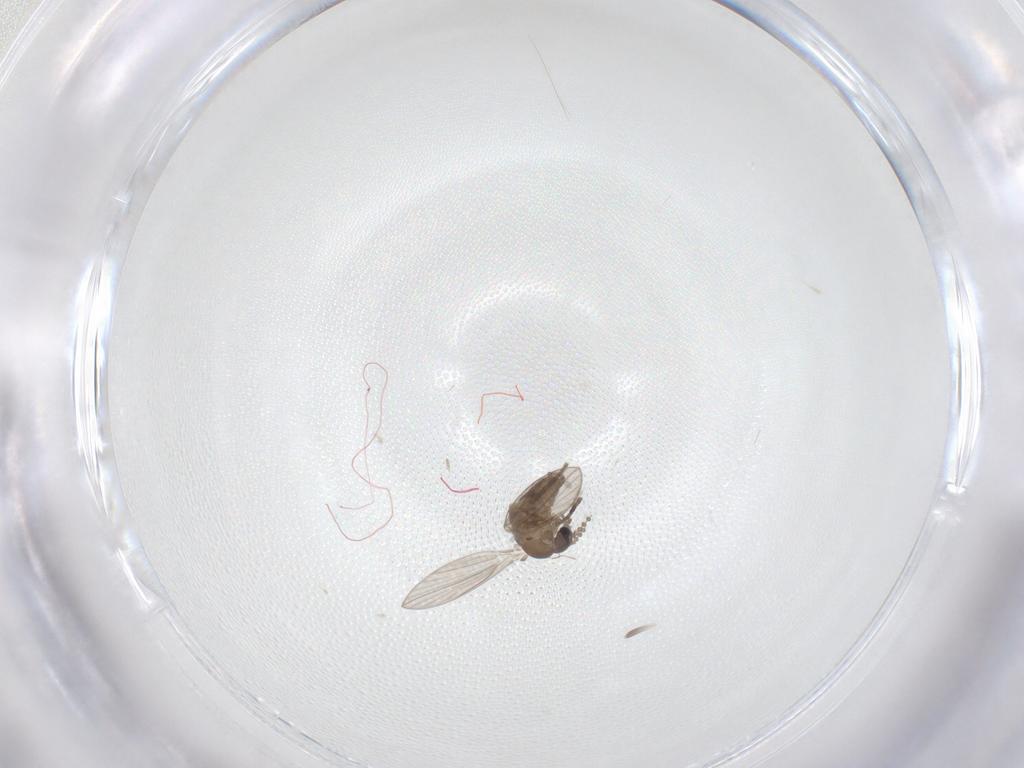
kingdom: Animalia
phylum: Arthropoda
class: Insecta
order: Diptera
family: Psychodidae
